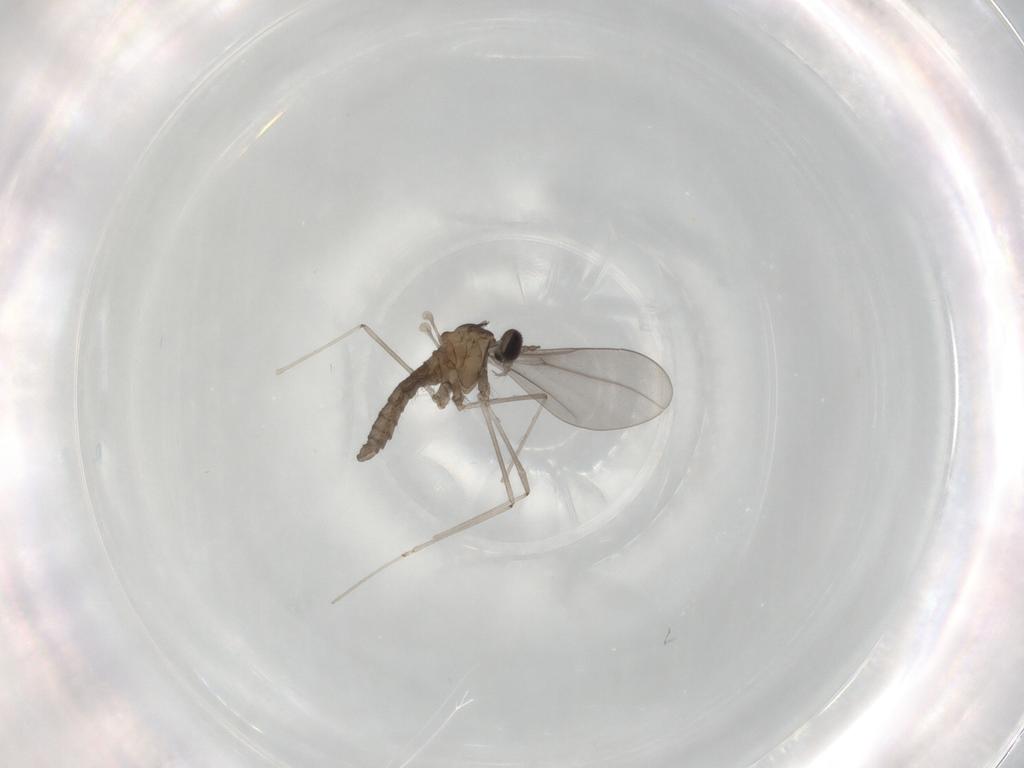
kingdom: Animalia
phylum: Arthropoda
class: Insecta
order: Diptera
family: Cecidomyiidae
